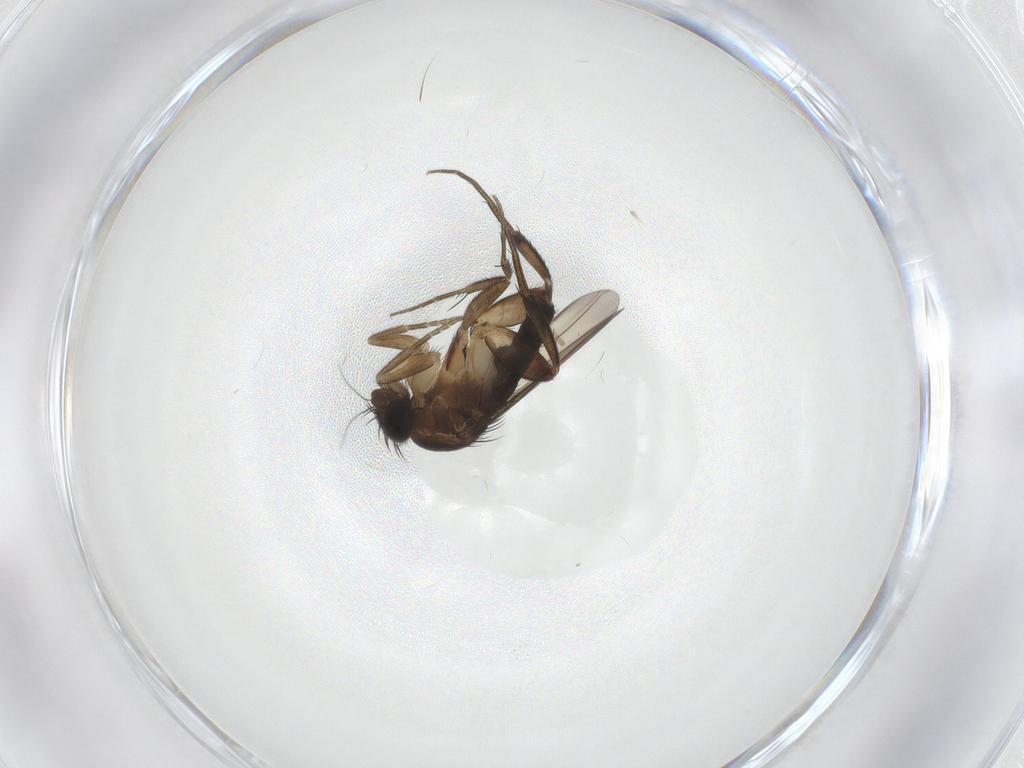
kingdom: Animalia
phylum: Arthropoda
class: Insecta
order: Diptera
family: Phoridae
